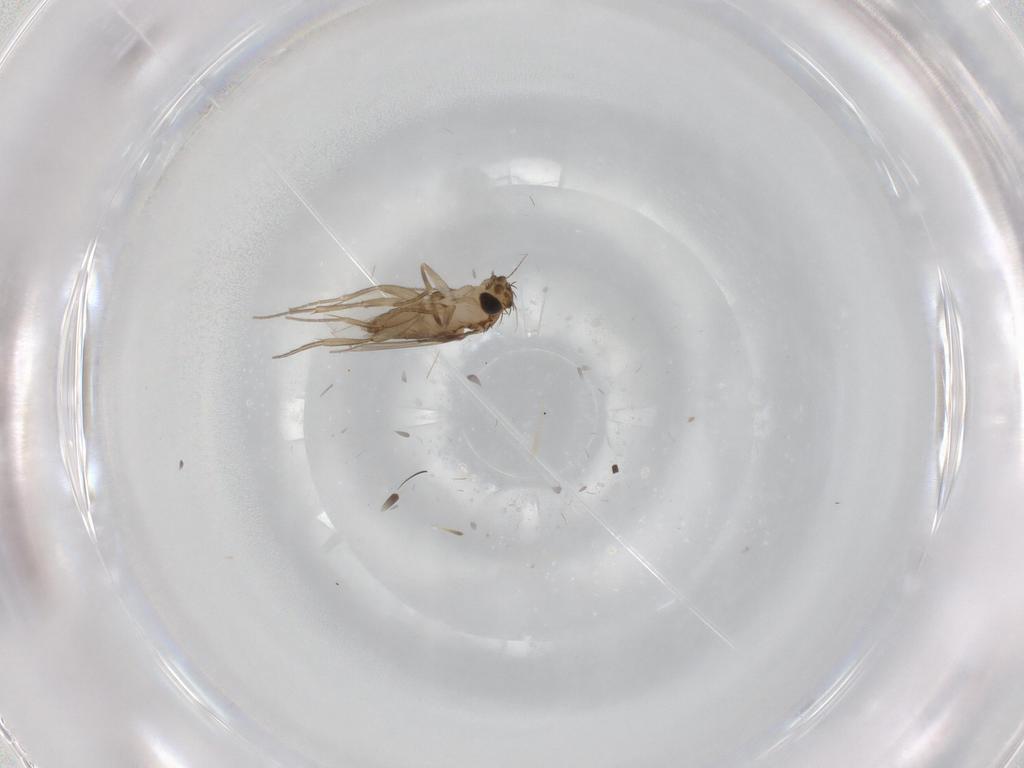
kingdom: Animalia
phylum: Arthropoda
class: Insecta
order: Diptera
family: Phoridae
